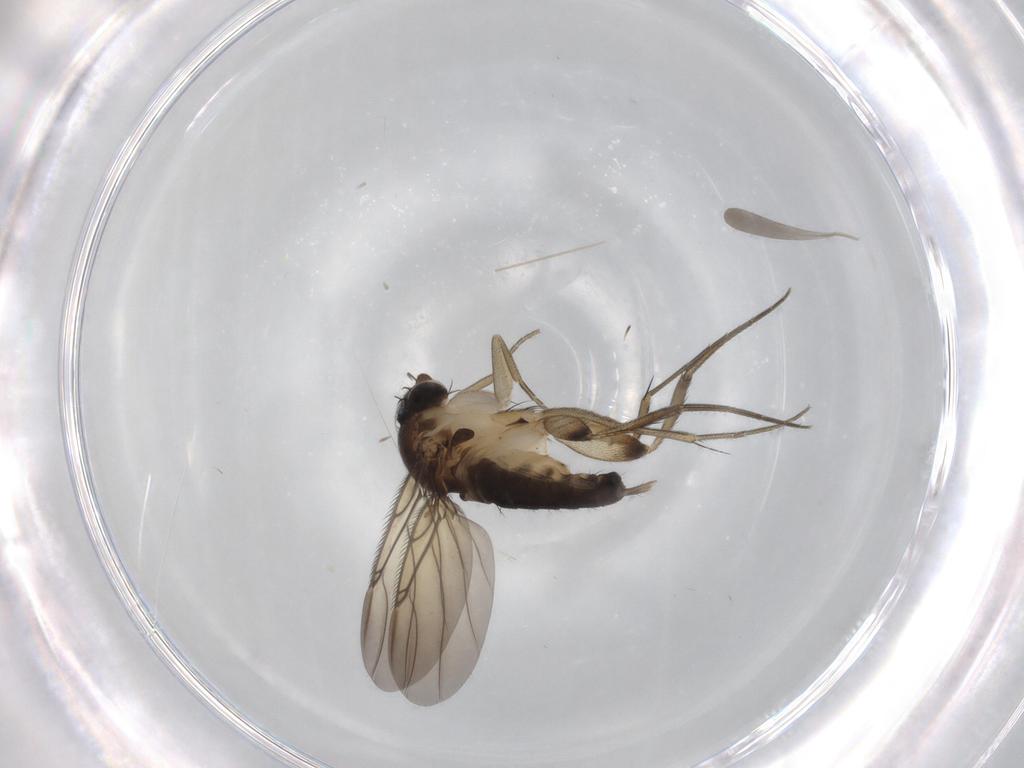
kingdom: Animalia
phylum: Arthropoda
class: Insecta
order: Diptera
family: Phoridae
